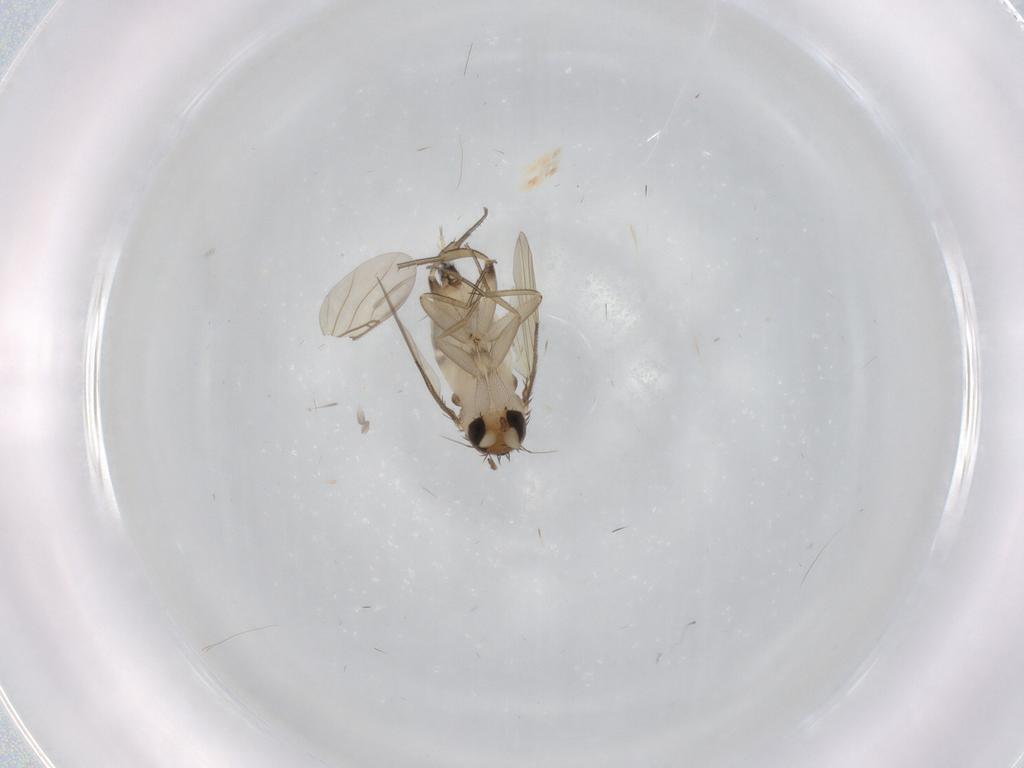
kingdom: Animalia
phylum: Arthropoda
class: Insecta
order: Diptera
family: Phoridae
